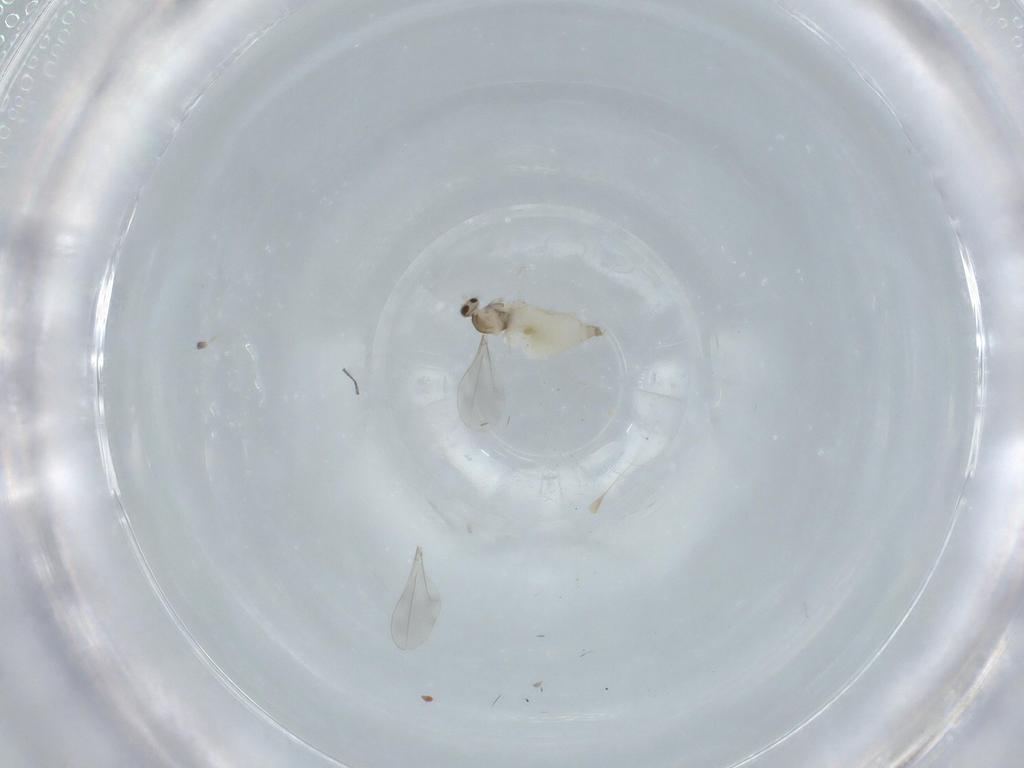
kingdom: Animalia
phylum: Arthropoda
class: Insecta
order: Diptera
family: Cecidomyiidae
